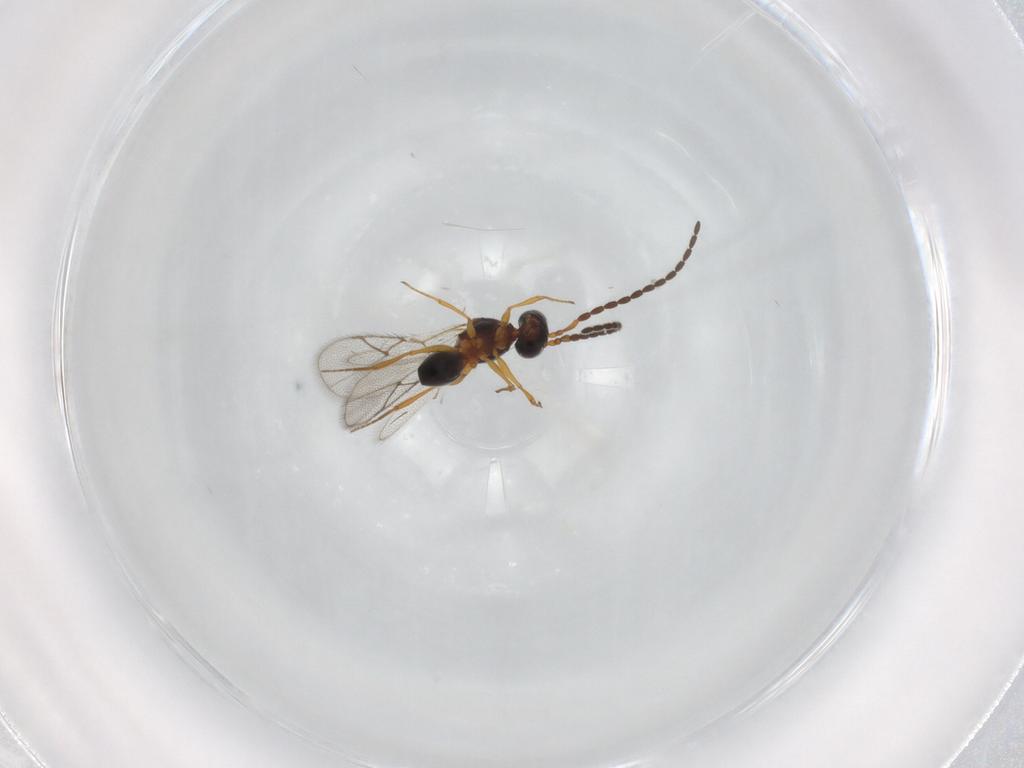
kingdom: Animalia
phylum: Arthropoda
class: Insecta
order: Hymenoptera
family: Figitidae
